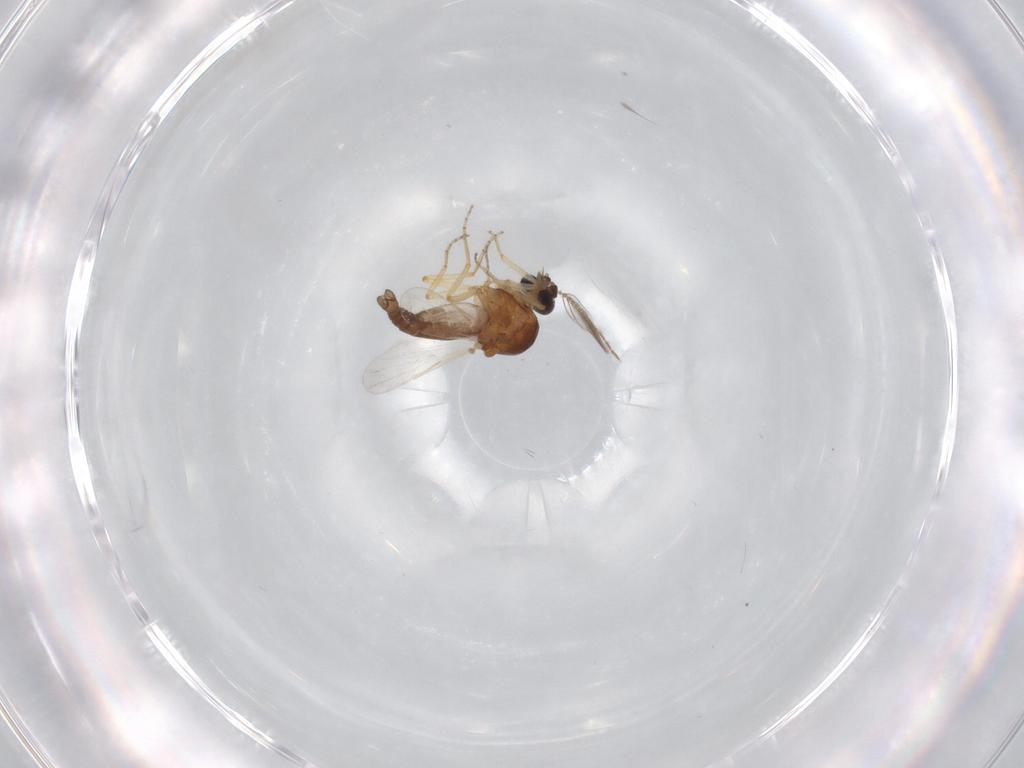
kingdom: Animalia
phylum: Arthropoda
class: Insecta
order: Diptera
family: Ceratopogonidae
